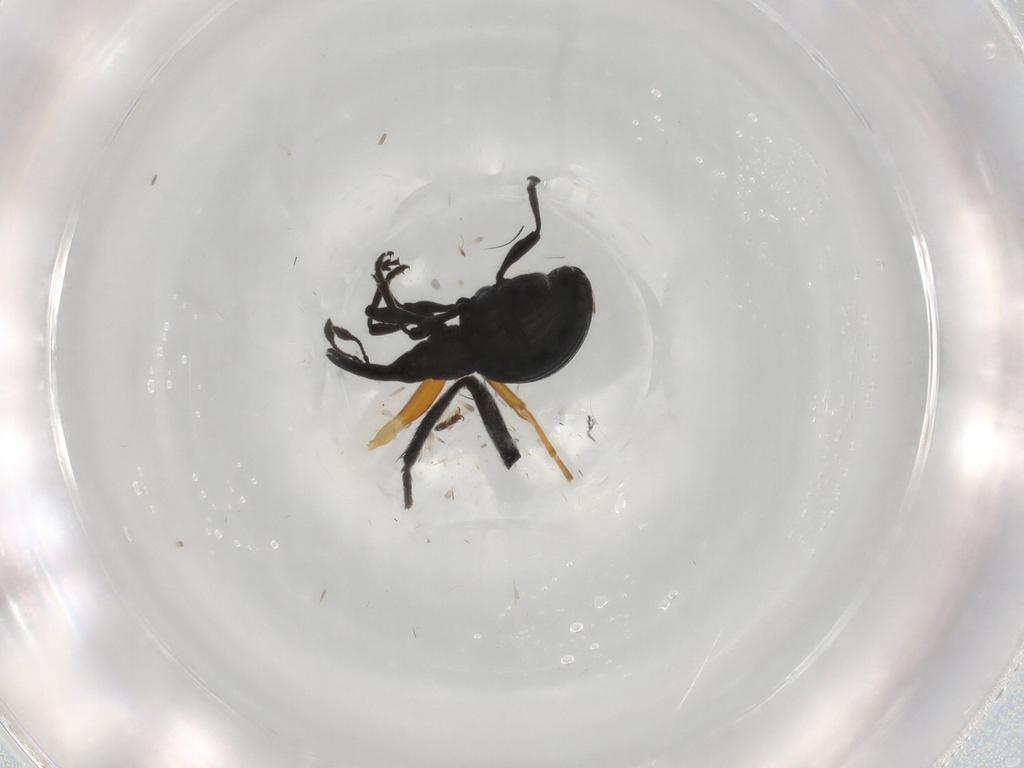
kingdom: Animalia
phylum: Arthropoda
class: Insecta
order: Coleoptera
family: Brentidae
